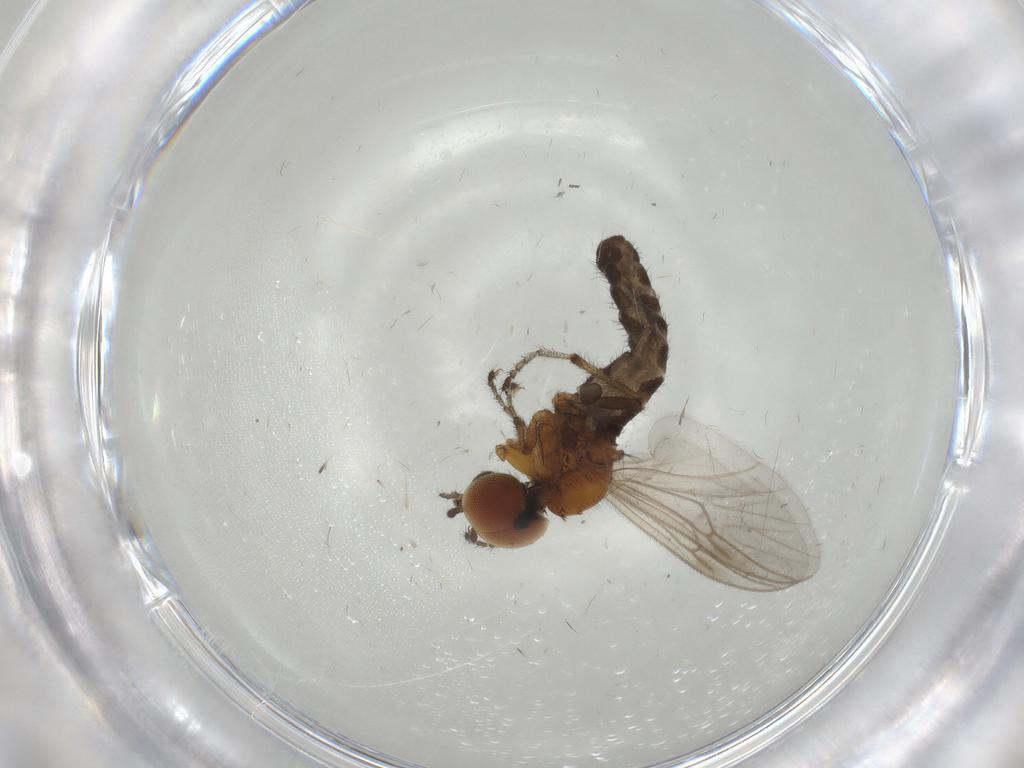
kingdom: Animalia
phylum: Arthropoda
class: Insecta
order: Diptera
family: Bibionidae
